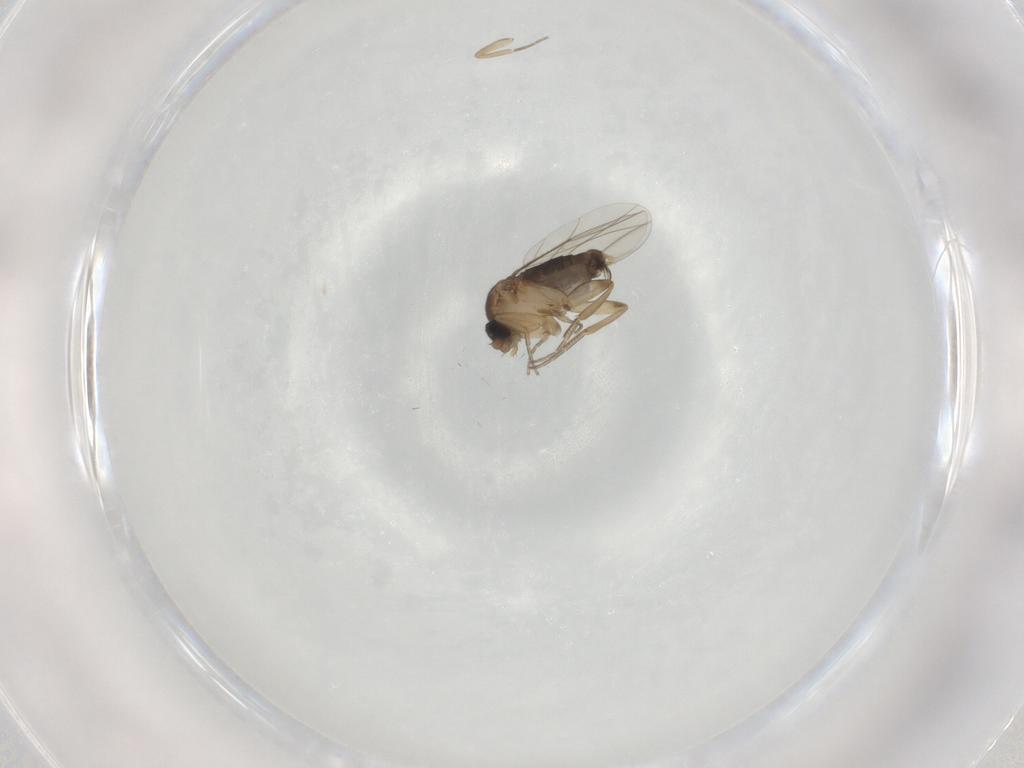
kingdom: Animalia
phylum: Arthropoda
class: Insecta
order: Diptera
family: Phoridae
